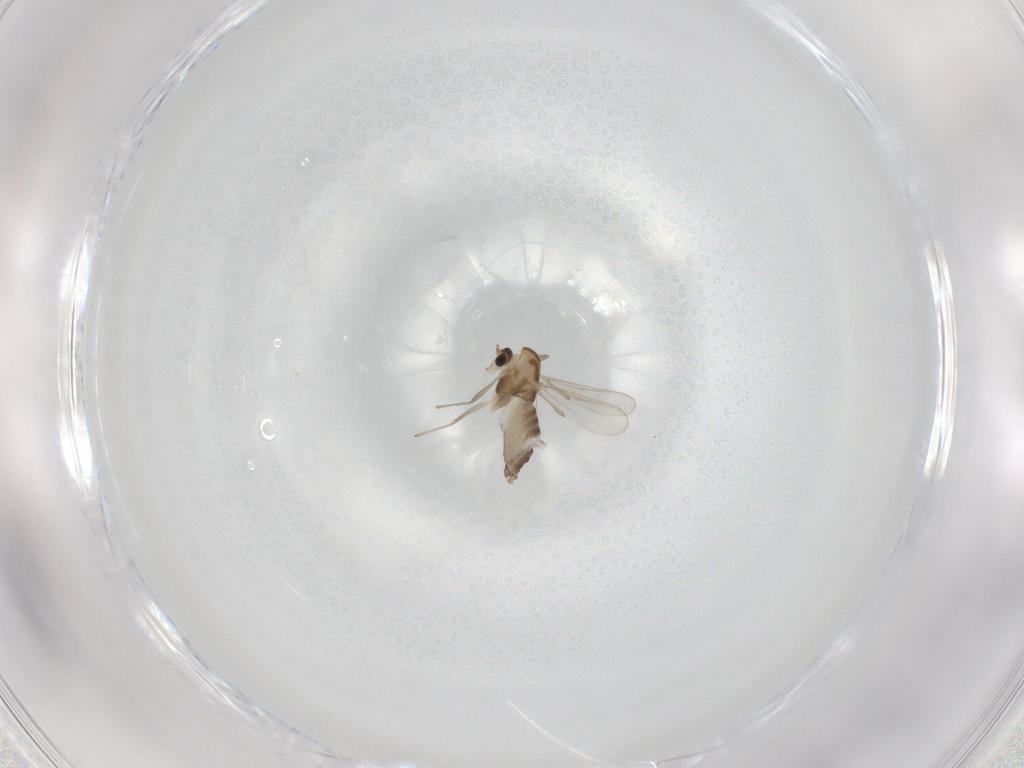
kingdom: Animalia
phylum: Arthropoda
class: Insecta
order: Diptera
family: Chironomidae
